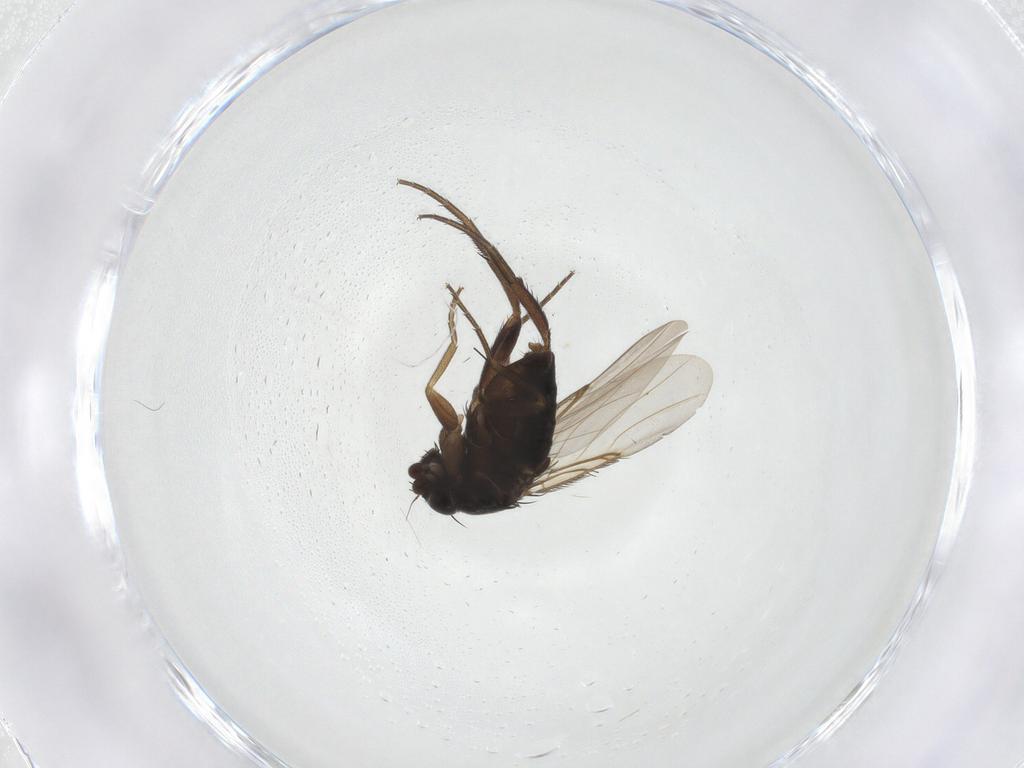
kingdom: Animalia
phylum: Arthropoda
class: Insecta
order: Diptera
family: Phoridae
